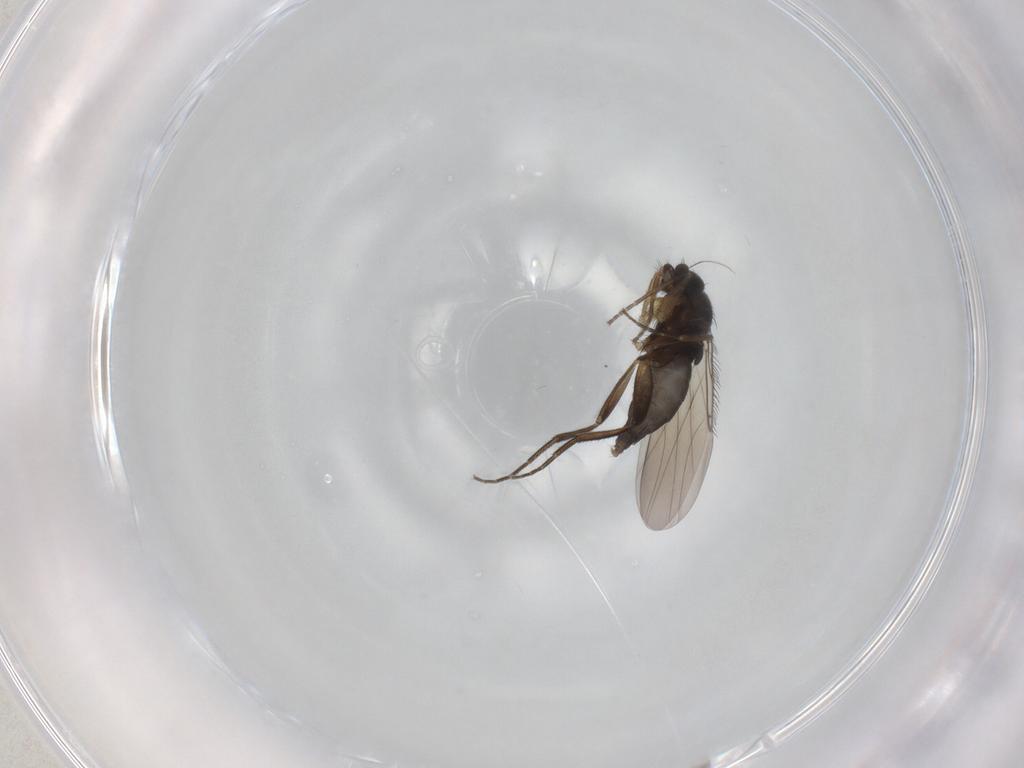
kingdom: Animalia
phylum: Arthropoda
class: Insecta
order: Diptera
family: Phoridae
